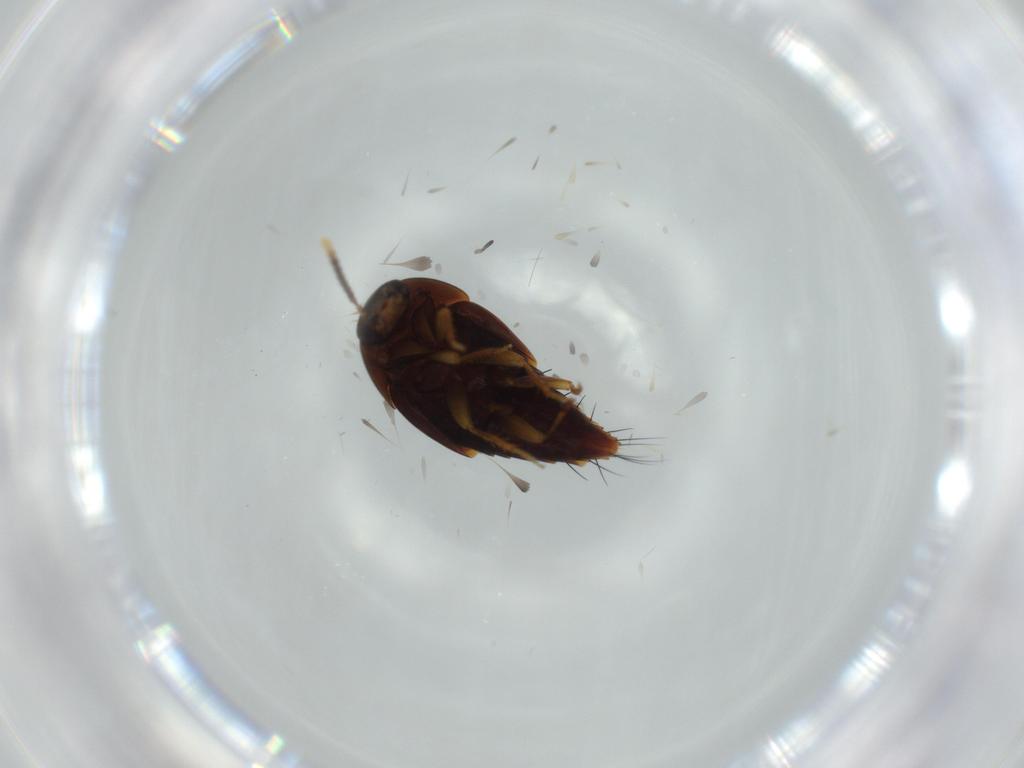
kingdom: Animalia
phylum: Arthropoda
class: Insecta
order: Coleoptera
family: Staphylinidae
